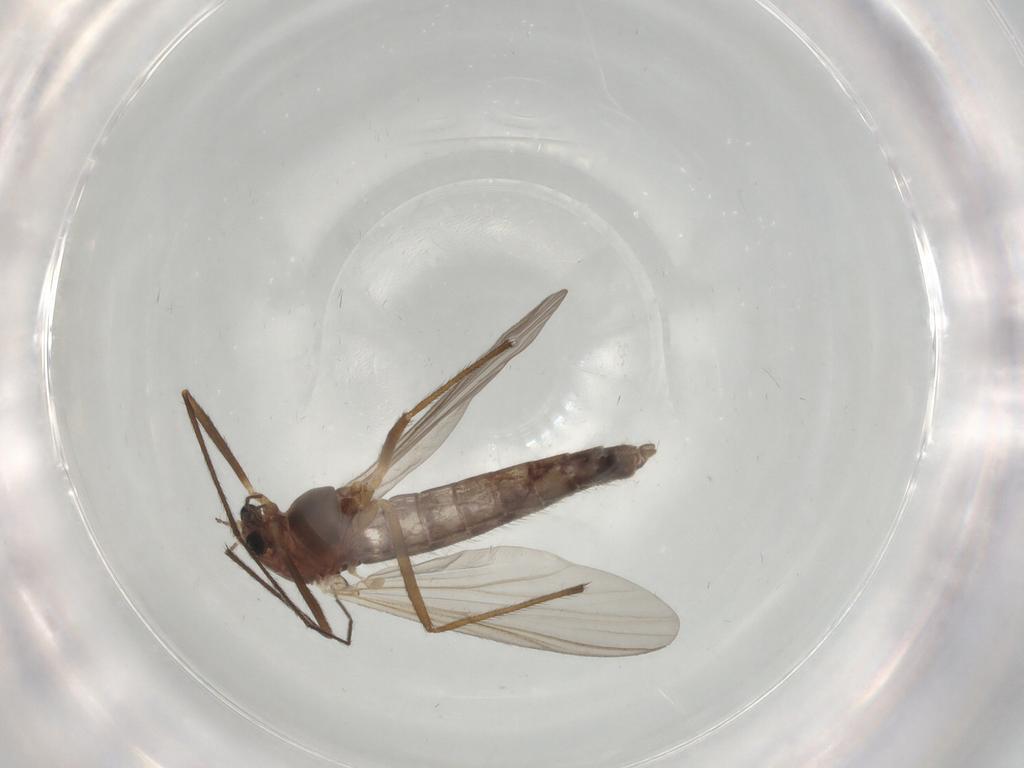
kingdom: Animalia
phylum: Arthropoda
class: Insecta
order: Diptera
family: Chironomidae
